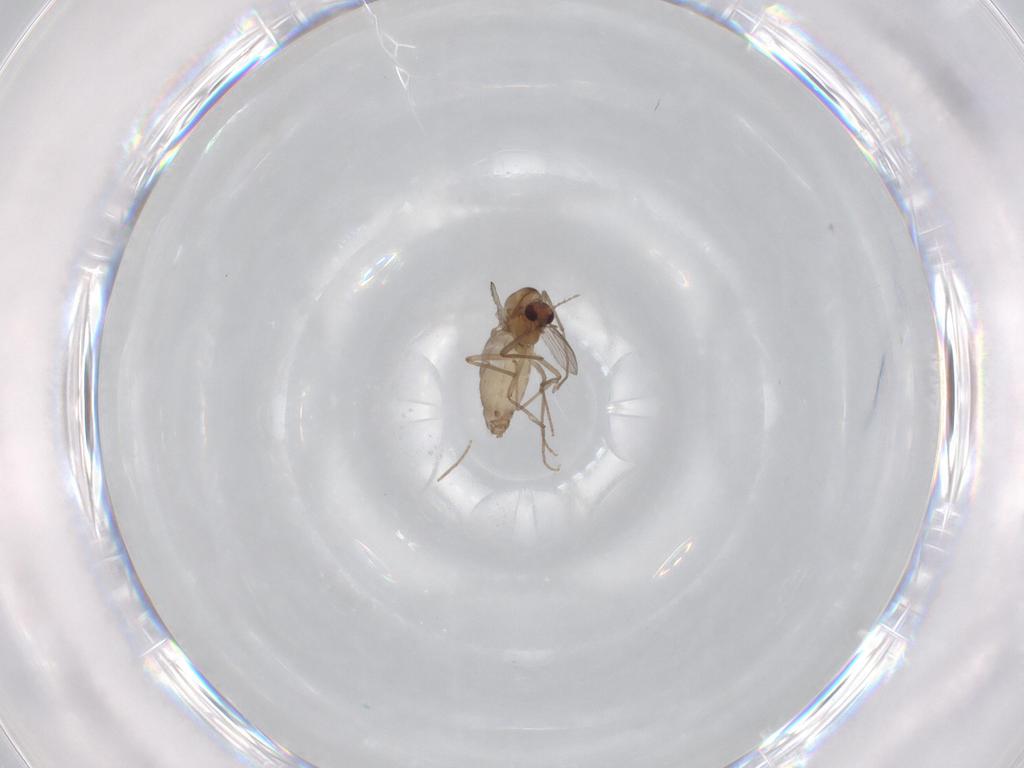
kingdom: Animalia
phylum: Arthropoda
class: Insecta
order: Diptera
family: Chironomidae
